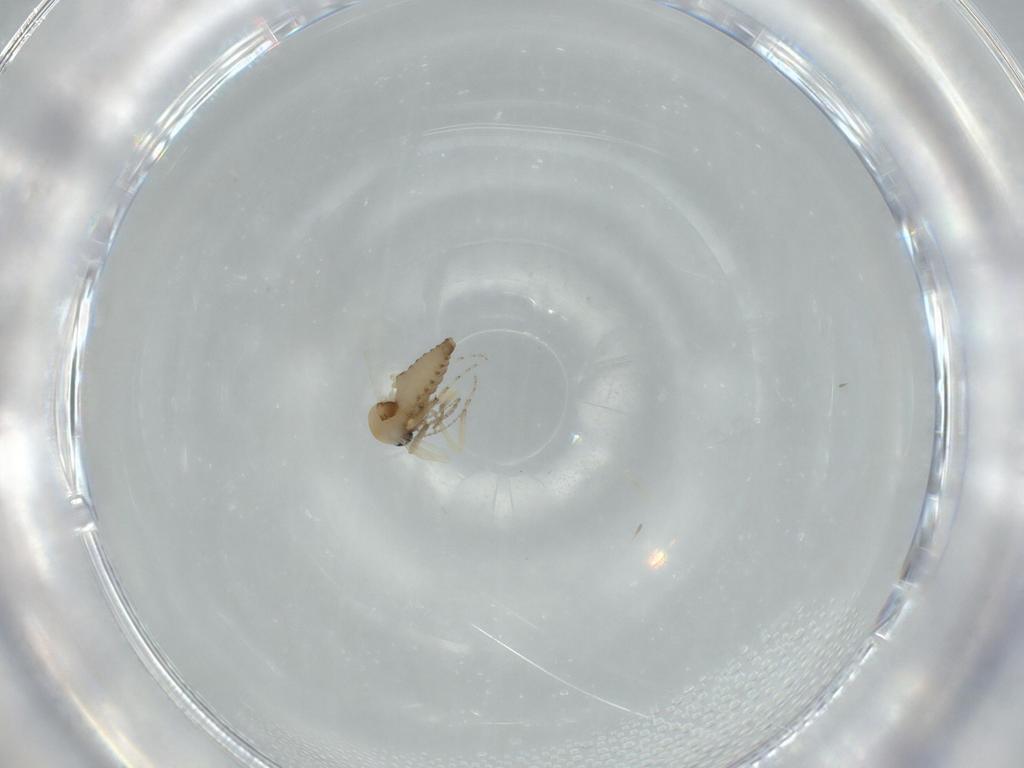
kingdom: Animalia
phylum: Arthropoda
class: Insecta
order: Diptera
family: Ceratopogonidae
